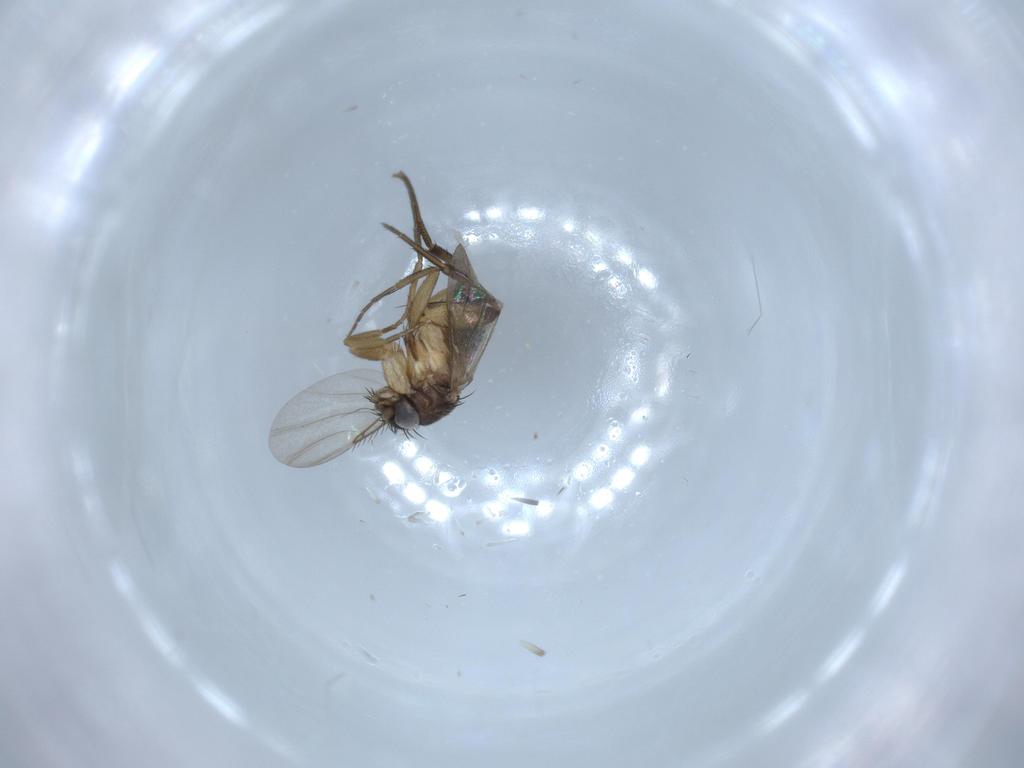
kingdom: Animalia
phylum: Arthropoda
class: Insecta
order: Diptera
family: Phoridae
